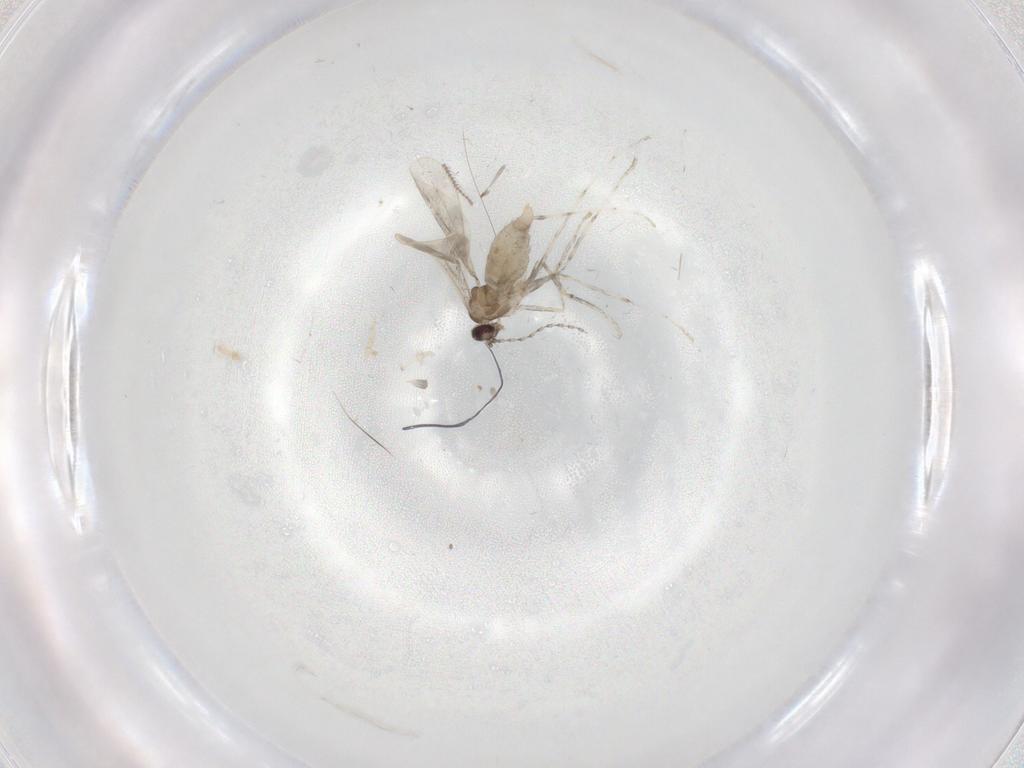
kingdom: Animalia
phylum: Arthropoda
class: Insecta
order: Diptera
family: Cecidomyiidae
